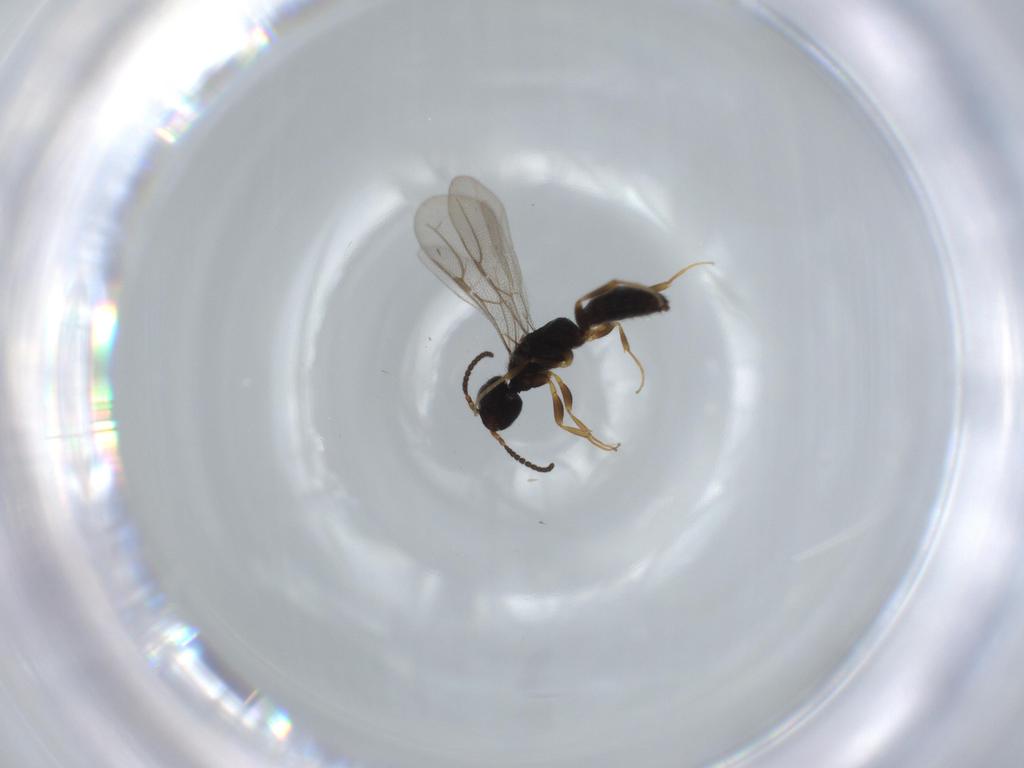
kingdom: Animalia
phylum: Arthropoda
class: Insecta
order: Hymenoptera
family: Bethylidae
